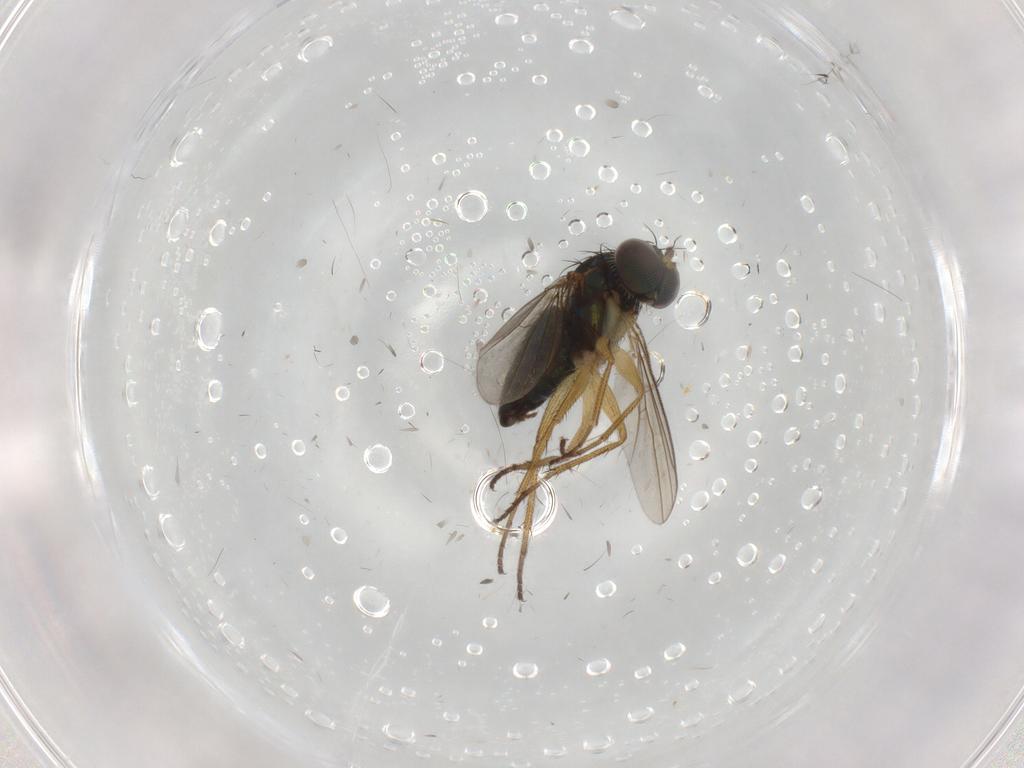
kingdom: Animalia
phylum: Arthropoda
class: Insecta
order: Diptera
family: Dolichopodidae
